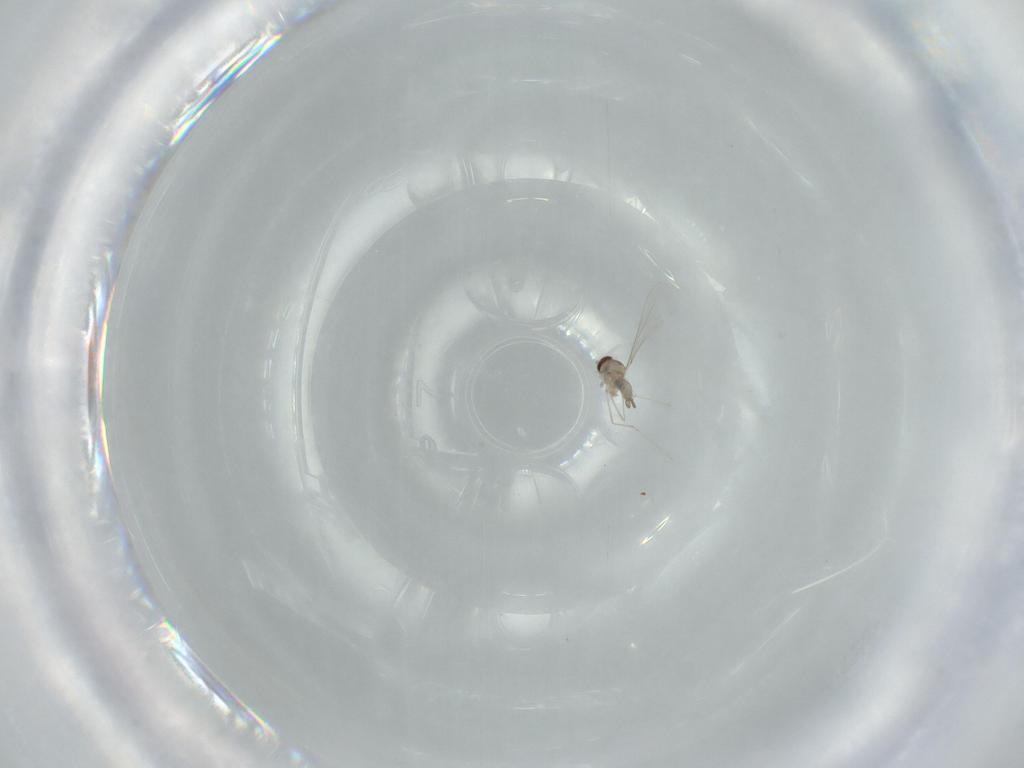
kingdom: Animalia
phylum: Arthropoda
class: Insecta
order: Diptera
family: Cecidomyiidae
